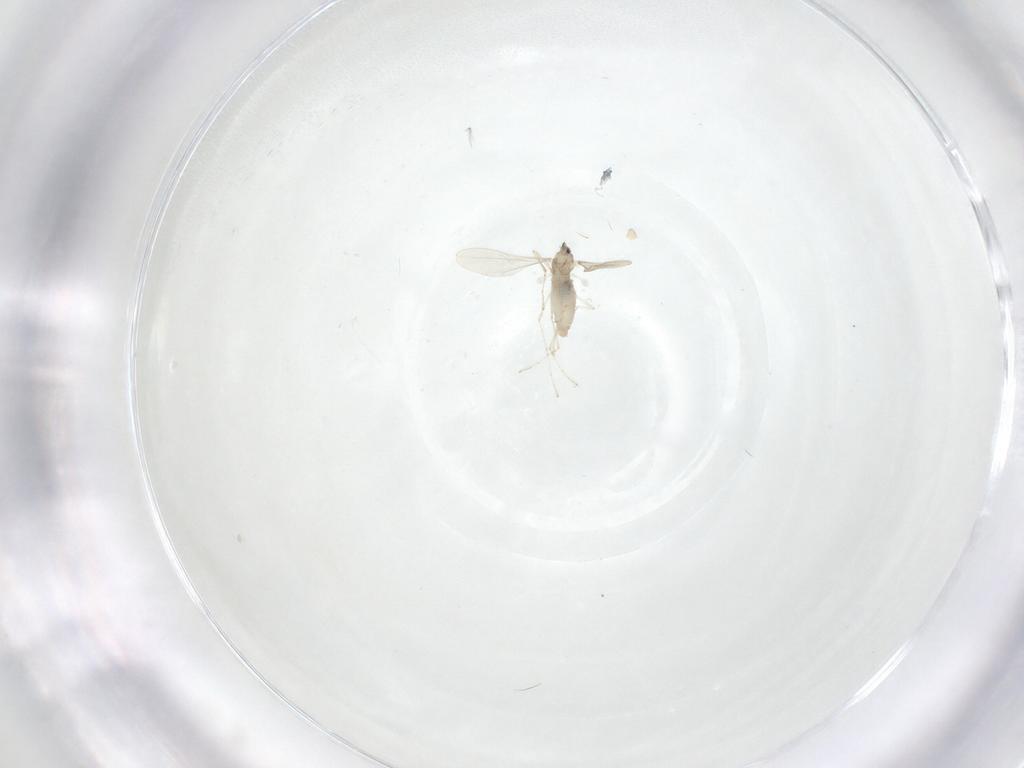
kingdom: Animalia
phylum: Arthropoda
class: Insecta
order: Diptera
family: Cecidomyiidae
